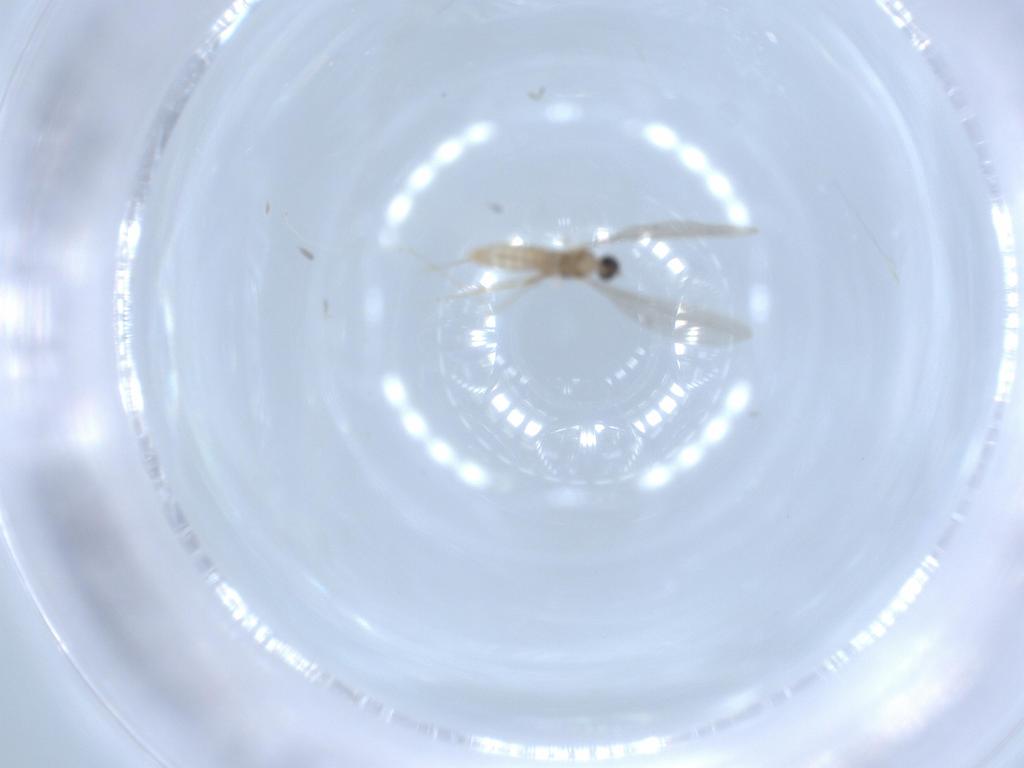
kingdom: Animalia
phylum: Arthropoda
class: Insecta
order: Diptera
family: Cecidomyiidae
